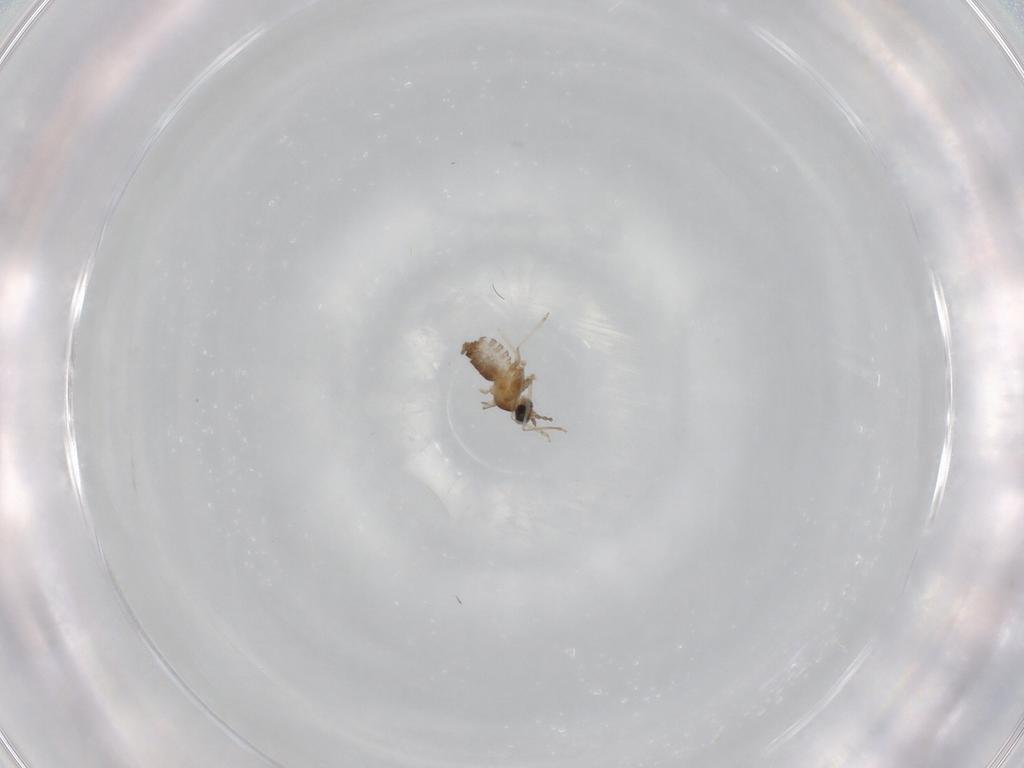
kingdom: Animalia
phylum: Arthropoda
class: Insecta
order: Diptera
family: Cecidomyiidae
